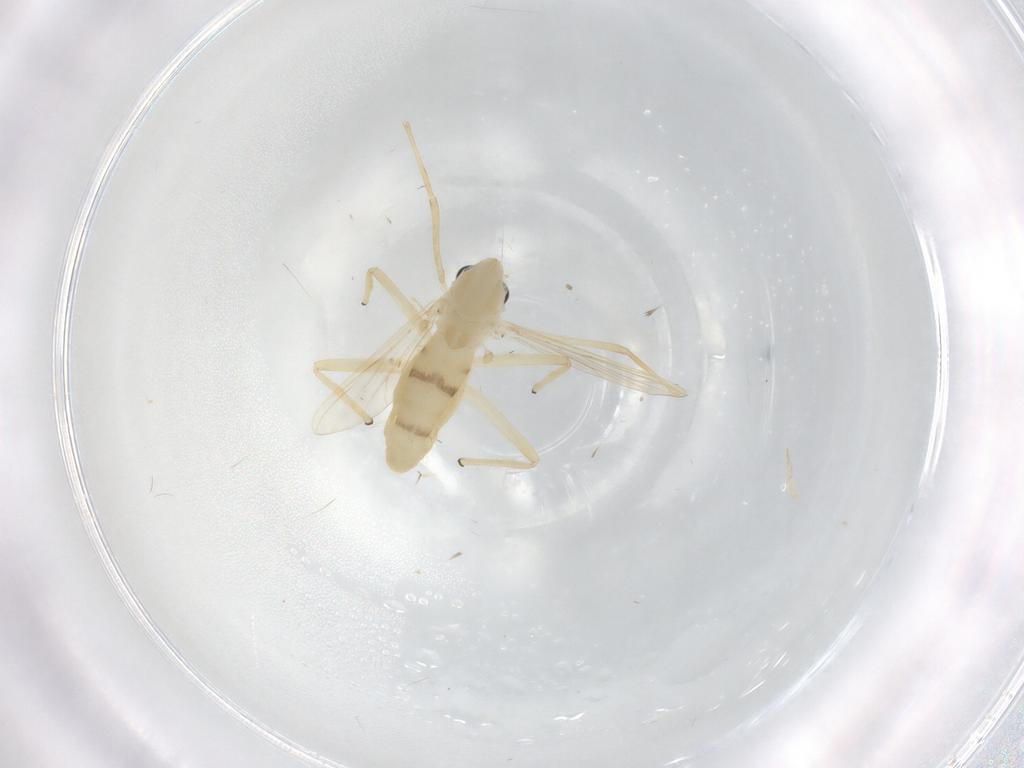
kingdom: Animalia
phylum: Arthropoda
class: Insecta
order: Diptera
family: Chironomidae
